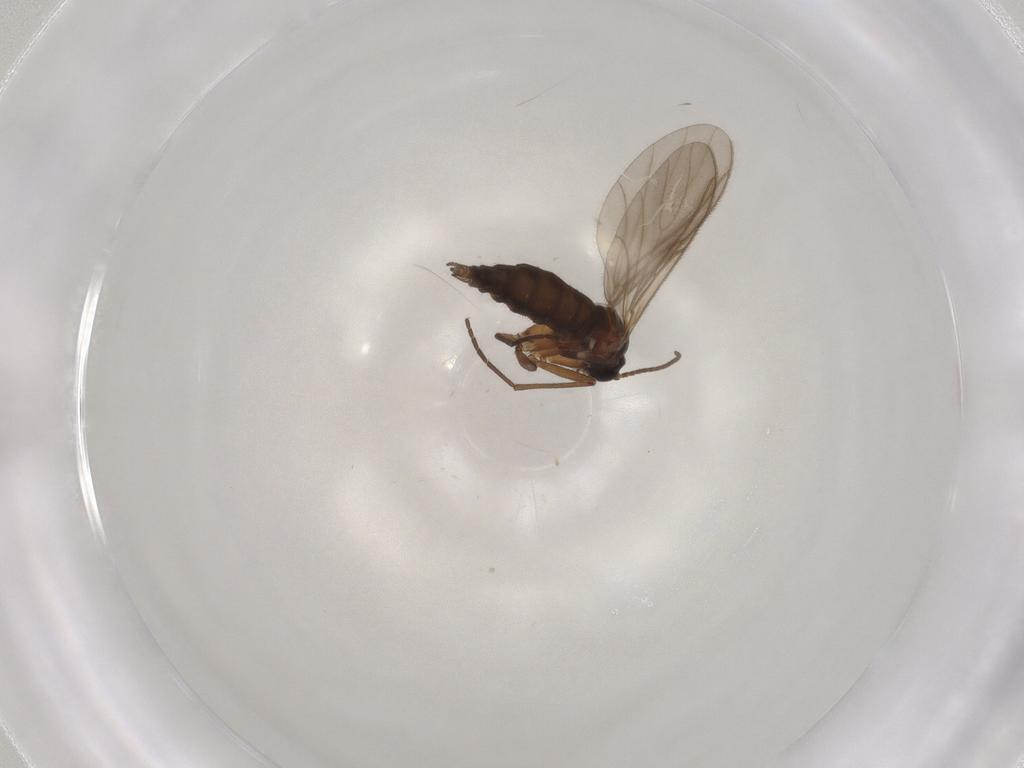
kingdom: Animalia
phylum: Arthropoda
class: Insecta
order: Diptera
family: Sciaridae
